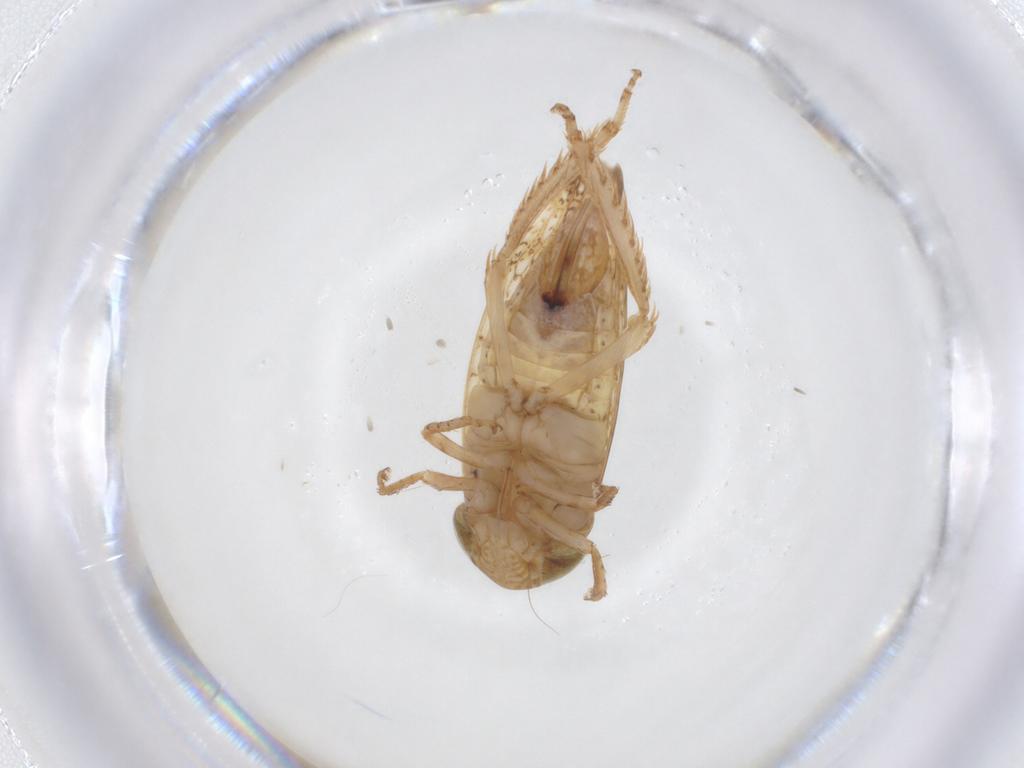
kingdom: Animalia
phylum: Arthropoda
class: Insecta
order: Hemiptera
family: Cicadellidae
